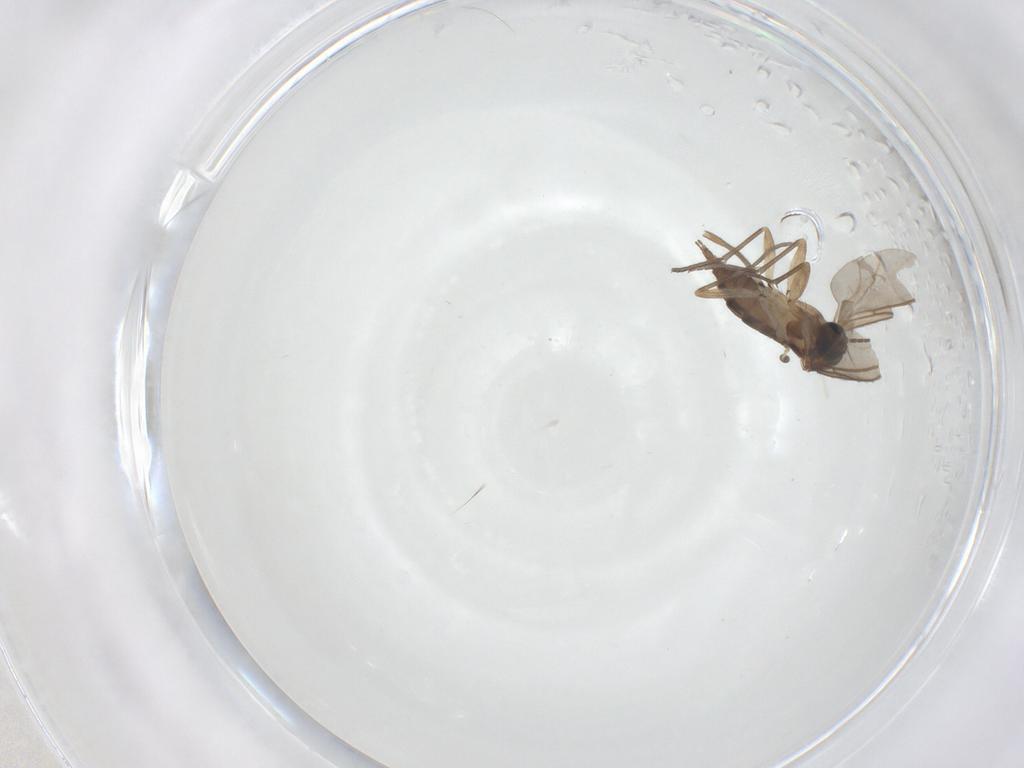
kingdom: Animalia
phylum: Arthropoda
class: Insecta
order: Diptera
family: Sciaridae
